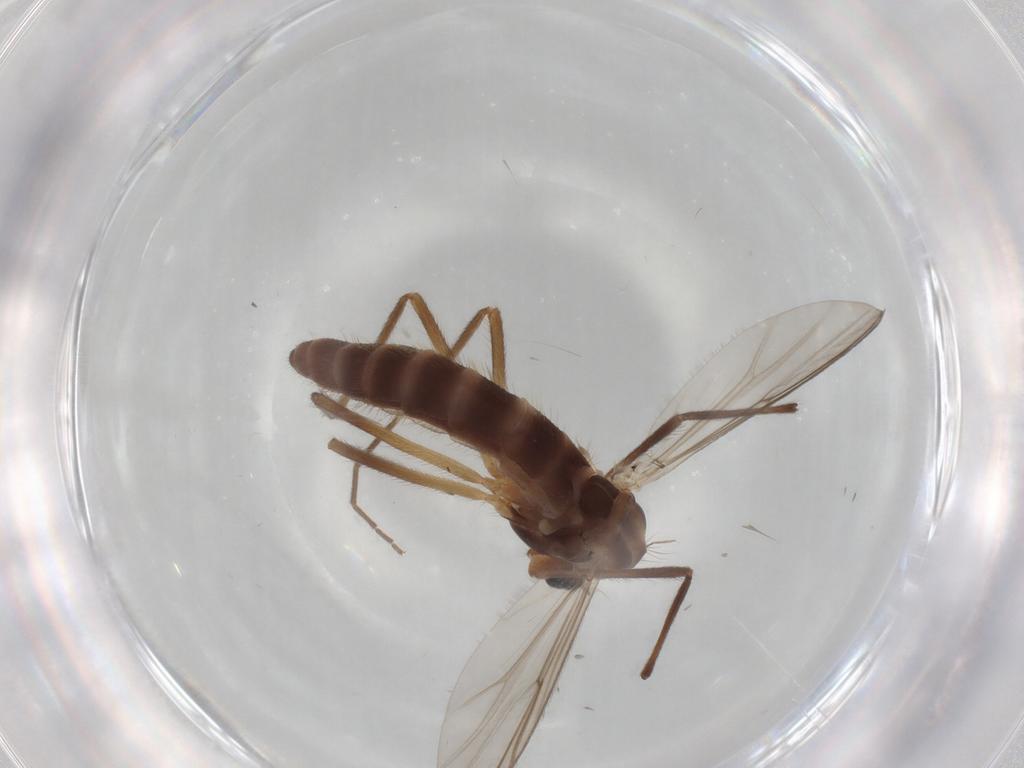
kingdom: Animalia
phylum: Arthropoda
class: Insecta
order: Diptera
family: Chironomidae
